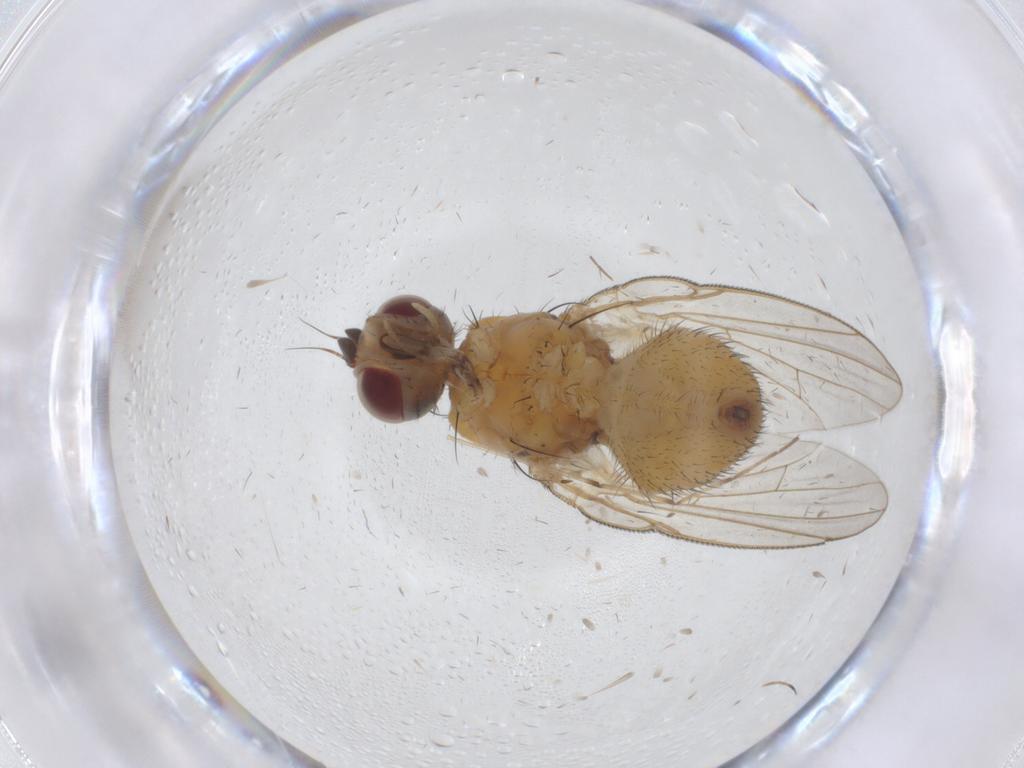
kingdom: Animalia
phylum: Arthropoda
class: Insecta
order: Diptera
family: Muscidae
